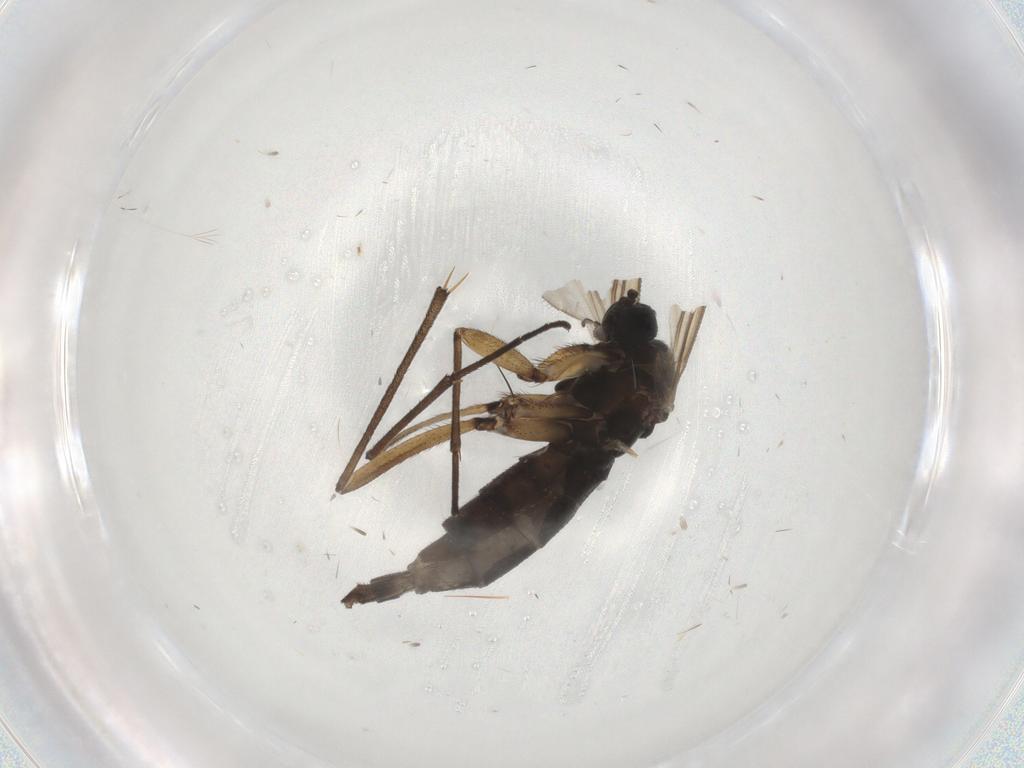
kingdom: Animalia
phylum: Arthropoda
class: Insecta
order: Diptera
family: Sciaridae
